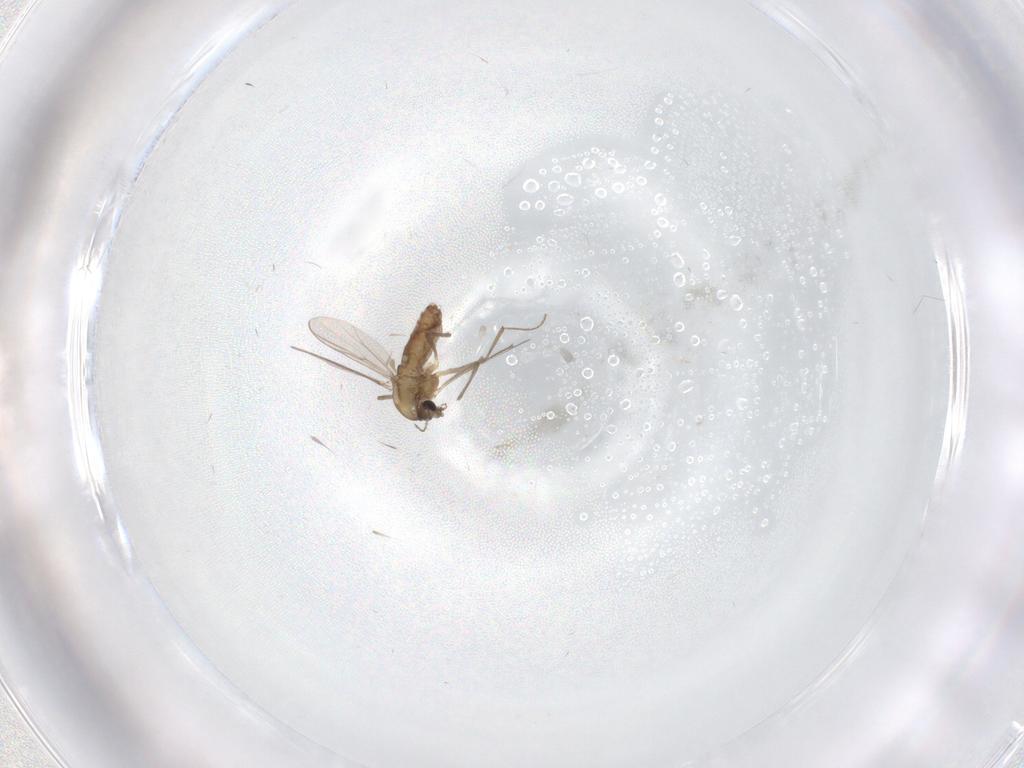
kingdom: Animalia
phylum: Arthropoda
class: Insecta
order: Diptera
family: Chironomidae
